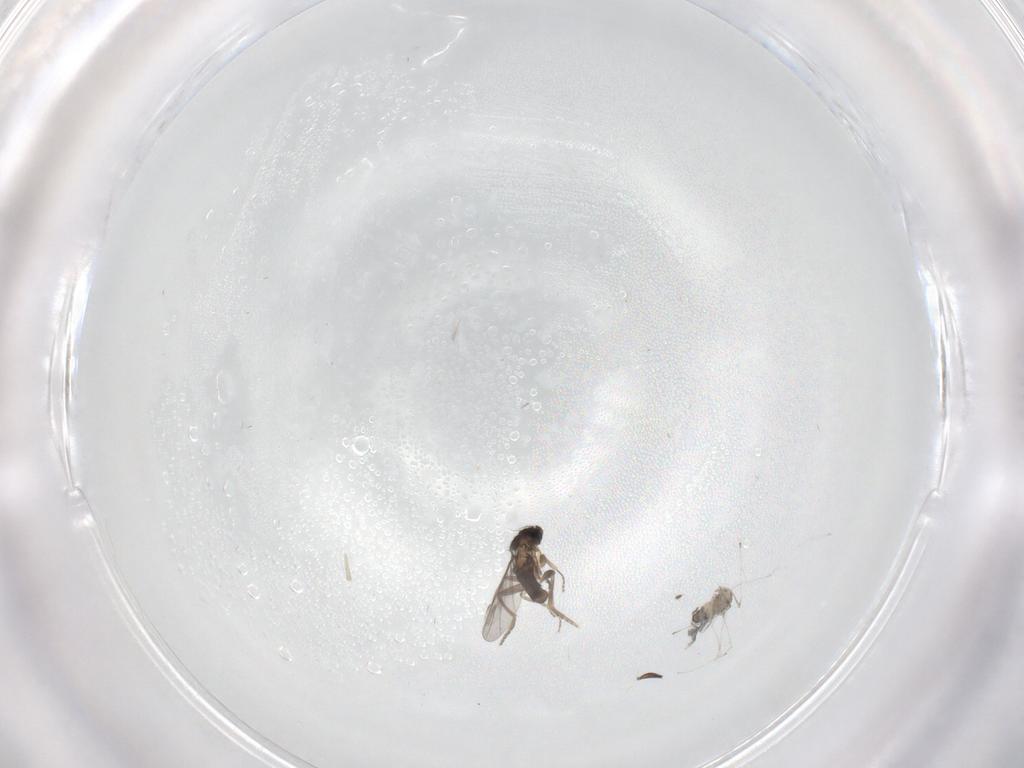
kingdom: Animalia
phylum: Arthropoda
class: Insecta
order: Diptera
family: Cecidomyiidae
